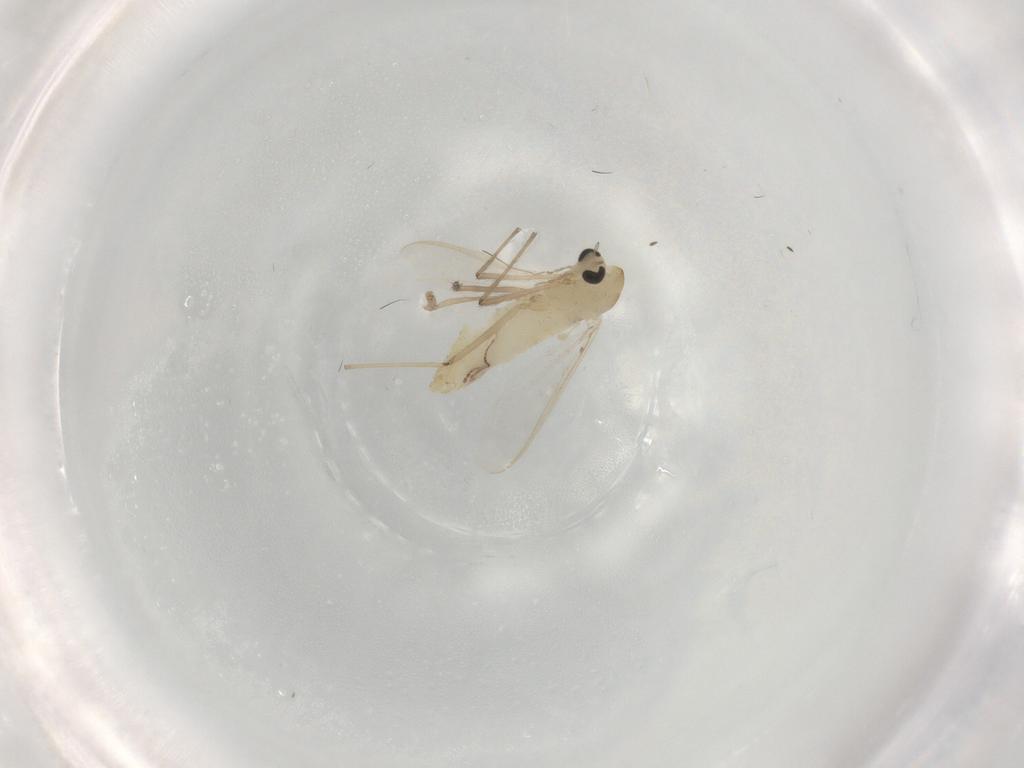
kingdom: Animalia
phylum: Arthropoda
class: Insecta
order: Diptera
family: Chironomidae
